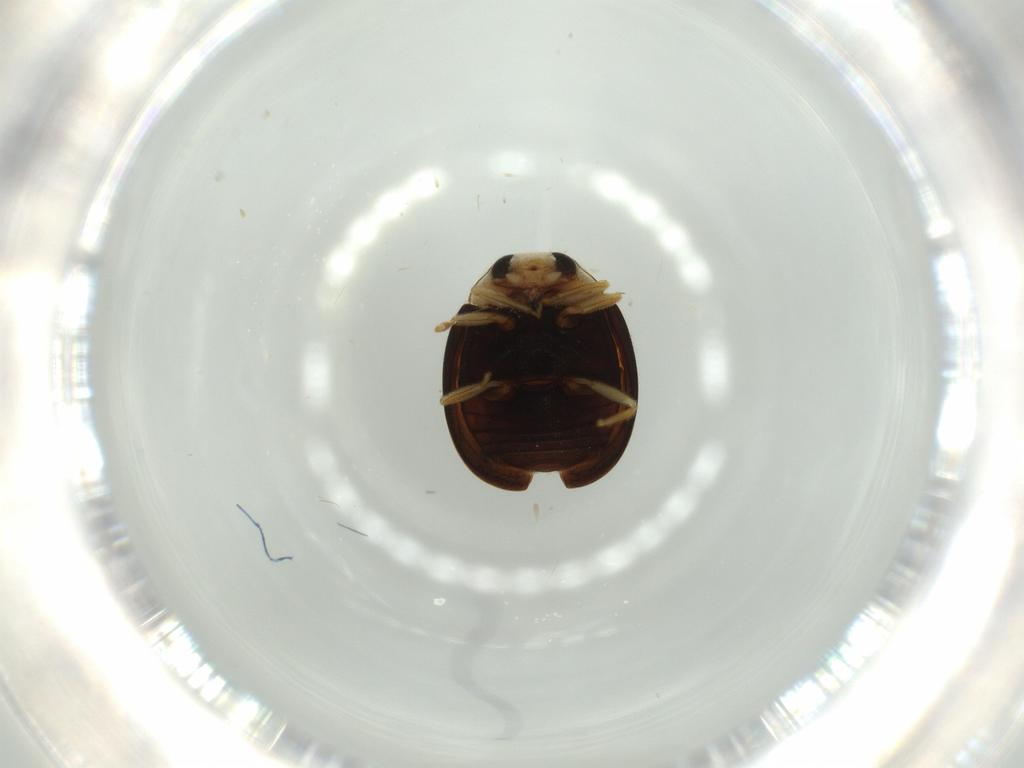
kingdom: Animalia
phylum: Arthropoda
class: Insecta
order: Coleoptera
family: Coccinellidae
